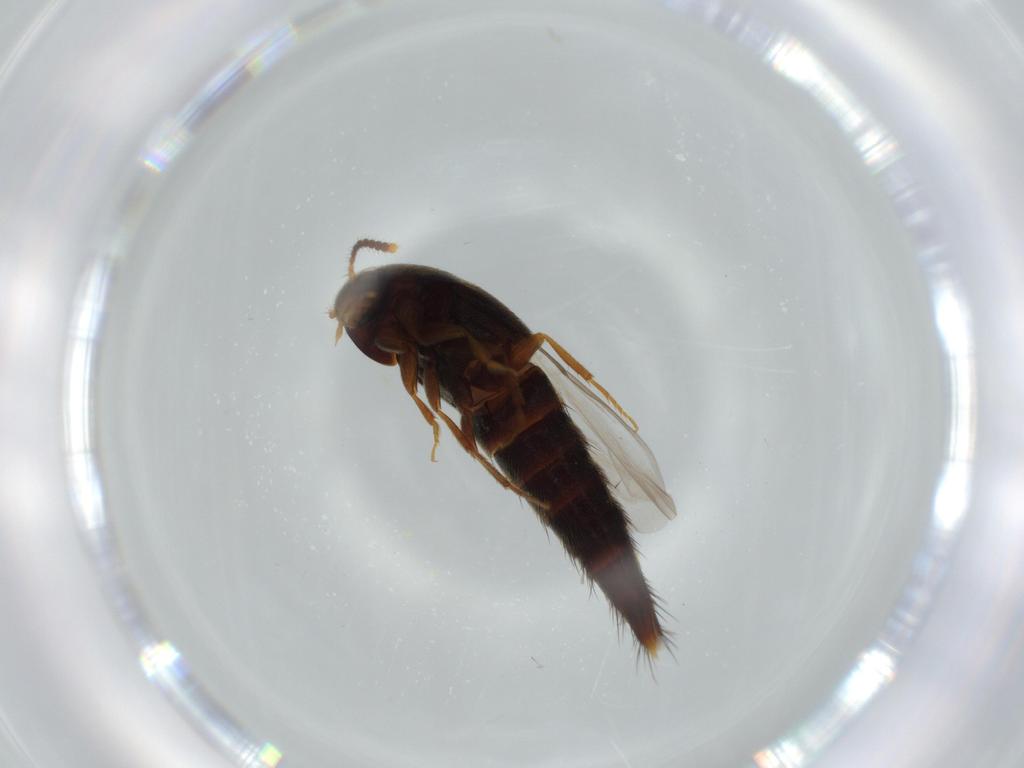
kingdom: Animalia
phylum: Arthropoda
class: Insecta
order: Coleoptera
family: Staphylinidae
